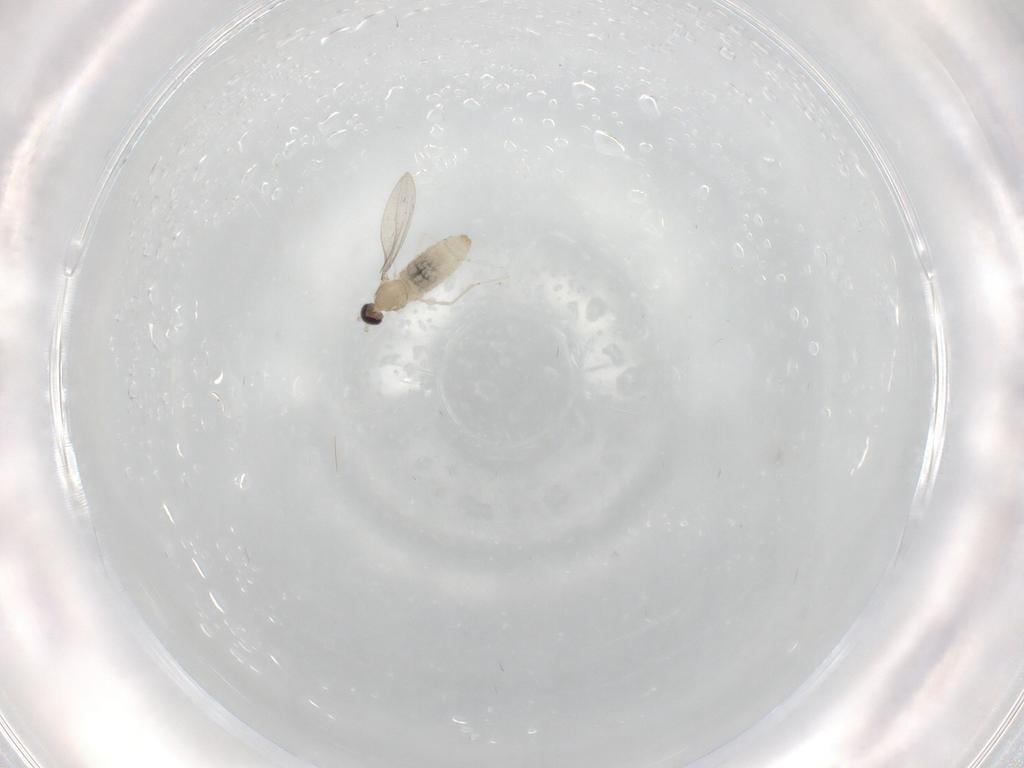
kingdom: Animalia
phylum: Arthropoda
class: Insecta
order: Diptera
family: Cecidomyiidae
